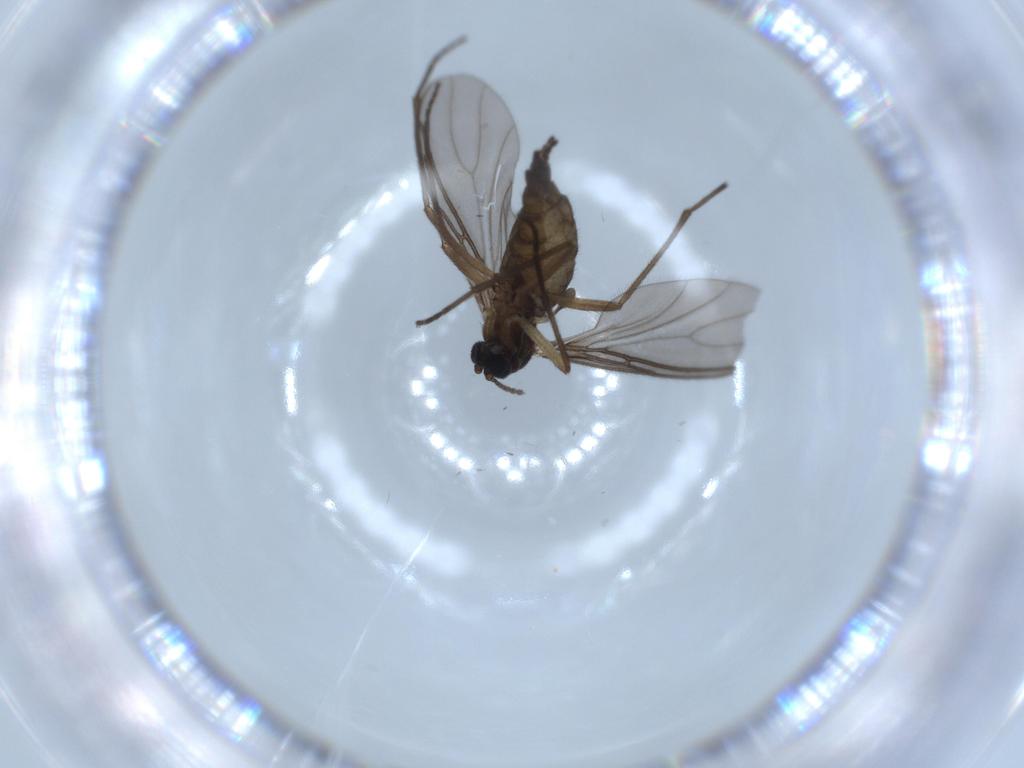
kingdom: Animalia
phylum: Arthropoda
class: Insecta
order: Diptera
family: Sciaridae
